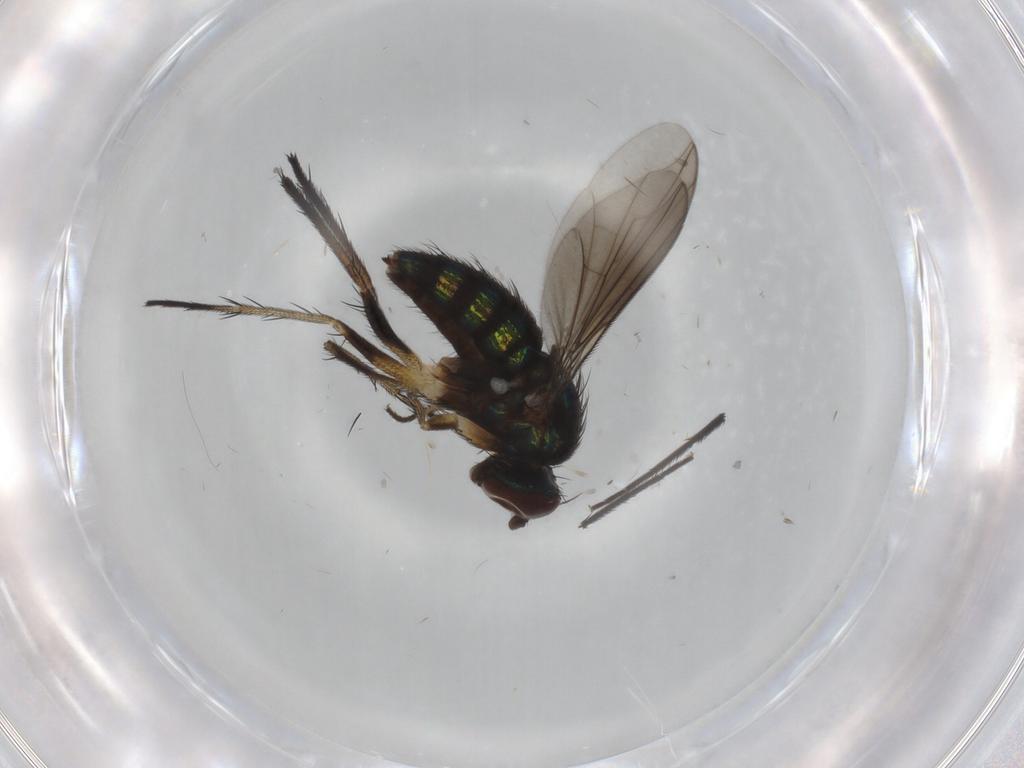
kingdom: Animalia
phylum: Arthropoda
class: Insecta
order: Diptera
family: Dolichopodidae
